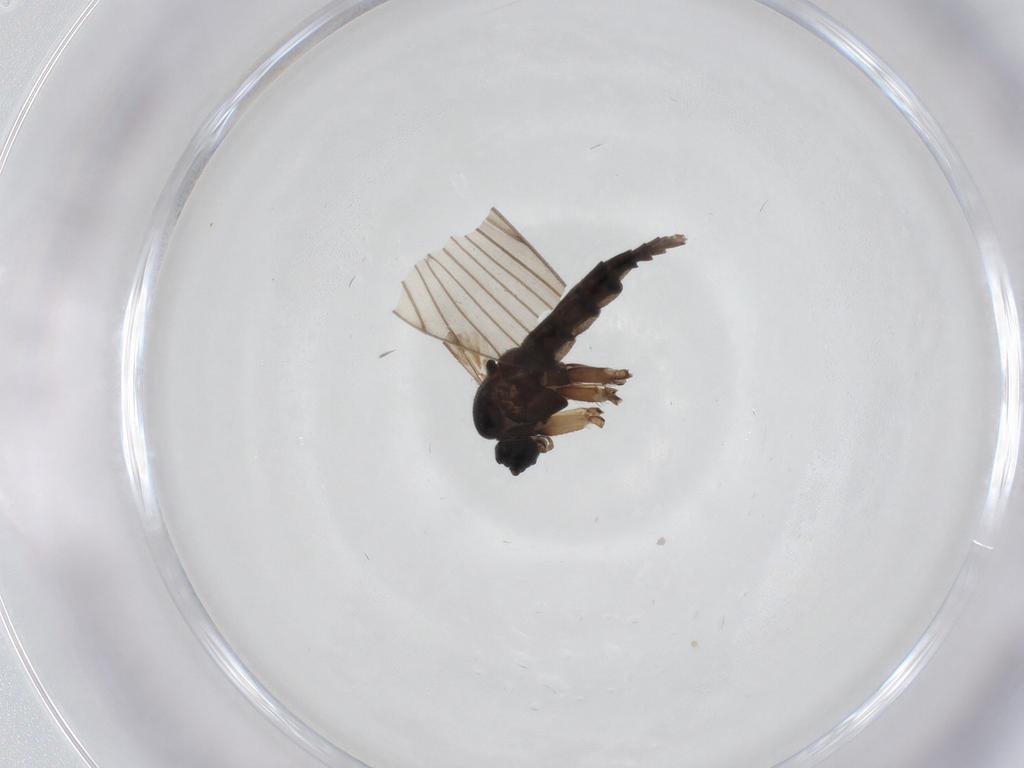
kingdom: Animalia
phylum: Arthropoda
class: Insecta
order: Diptera
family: Sciaridae
